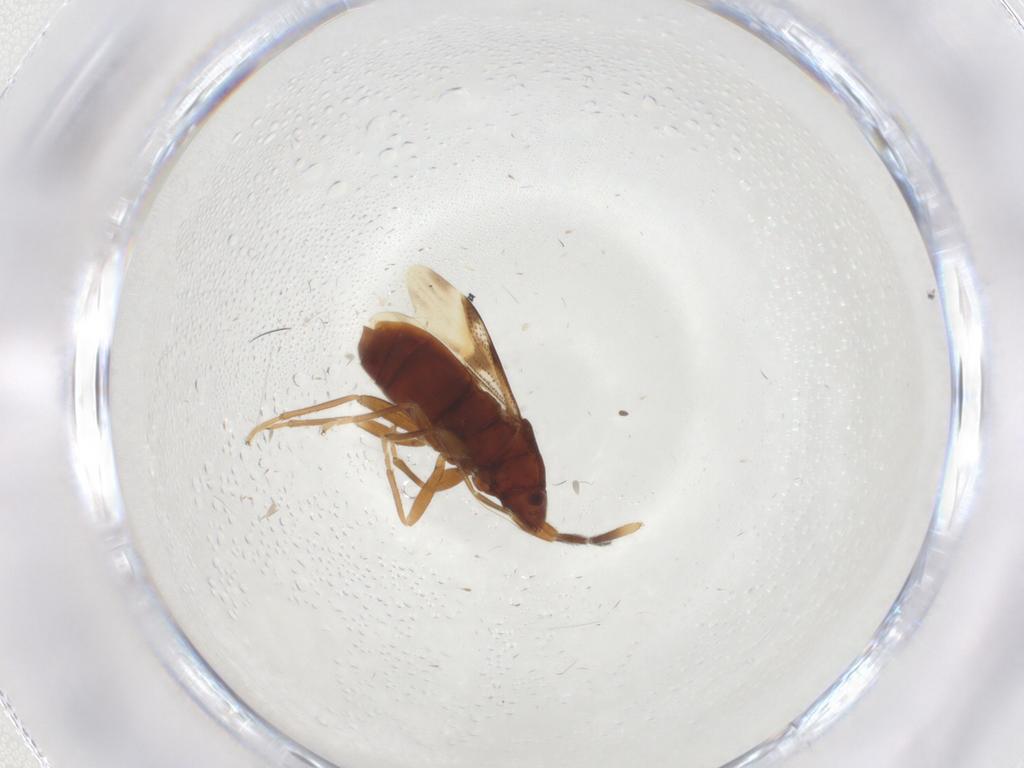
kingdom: Animalia
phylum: Arthropoda
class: Insecta
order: Hemiptera
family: Rhyparochromidae
